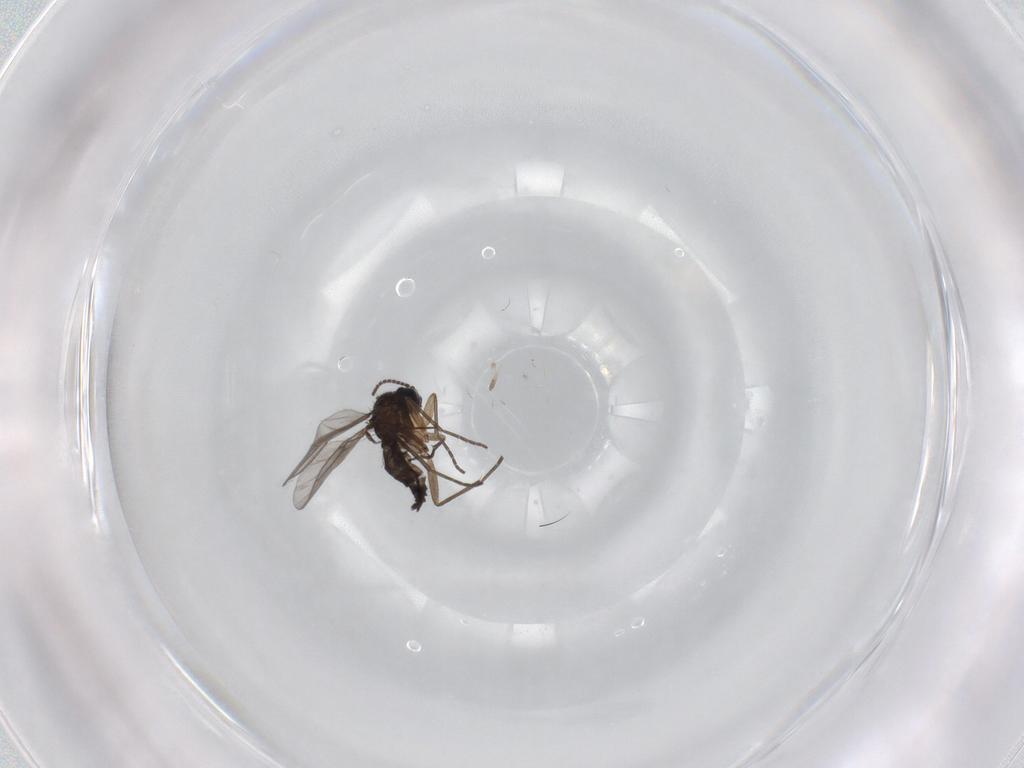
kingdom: Animalia
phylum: Arthropoda
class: Insecta
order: Diptera
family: Sciaridae
